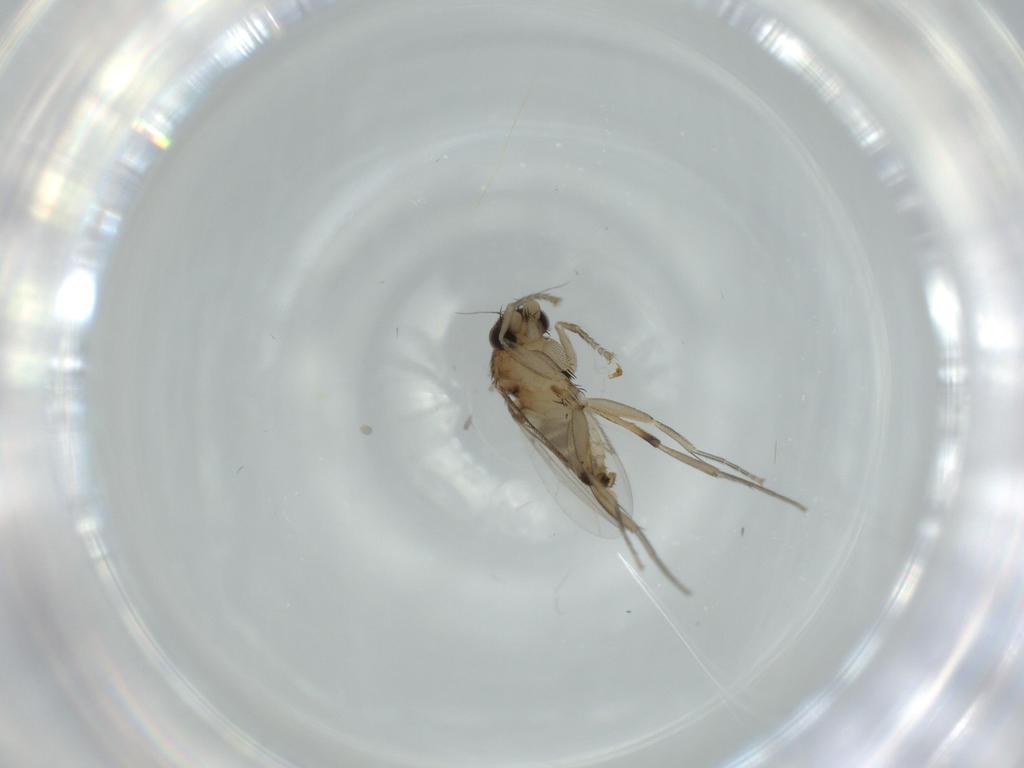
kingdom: Animalia
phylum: Arthropoda
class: Insecta
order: Diptera
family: Phoridae
